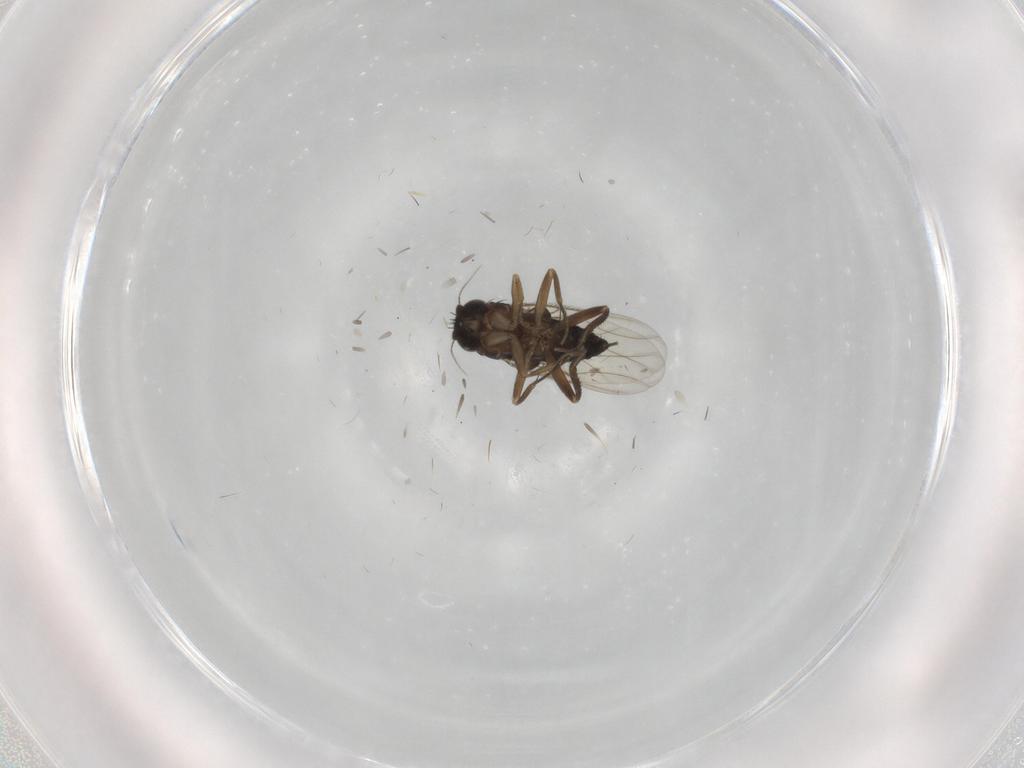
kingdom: Animalia
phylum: Arthropoda
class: Insecta
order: Diptera
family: Phoridae
